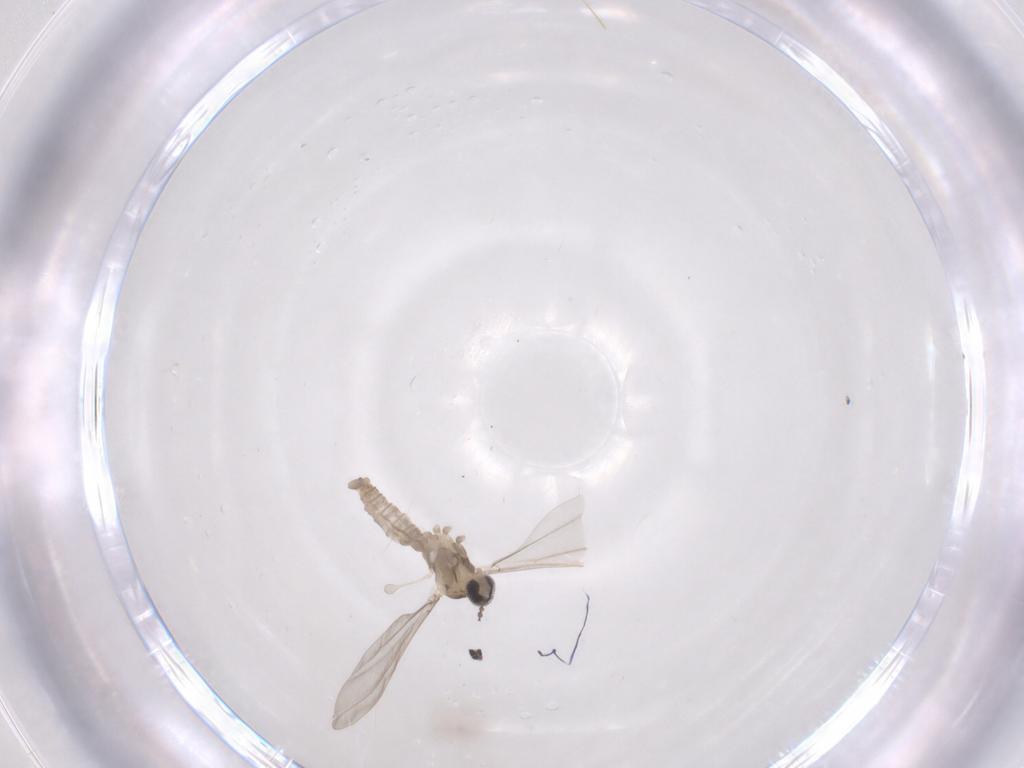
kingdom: Animalia
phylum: Arthropoda
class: Insecta
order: Diptera
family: Cecidomyiidae
